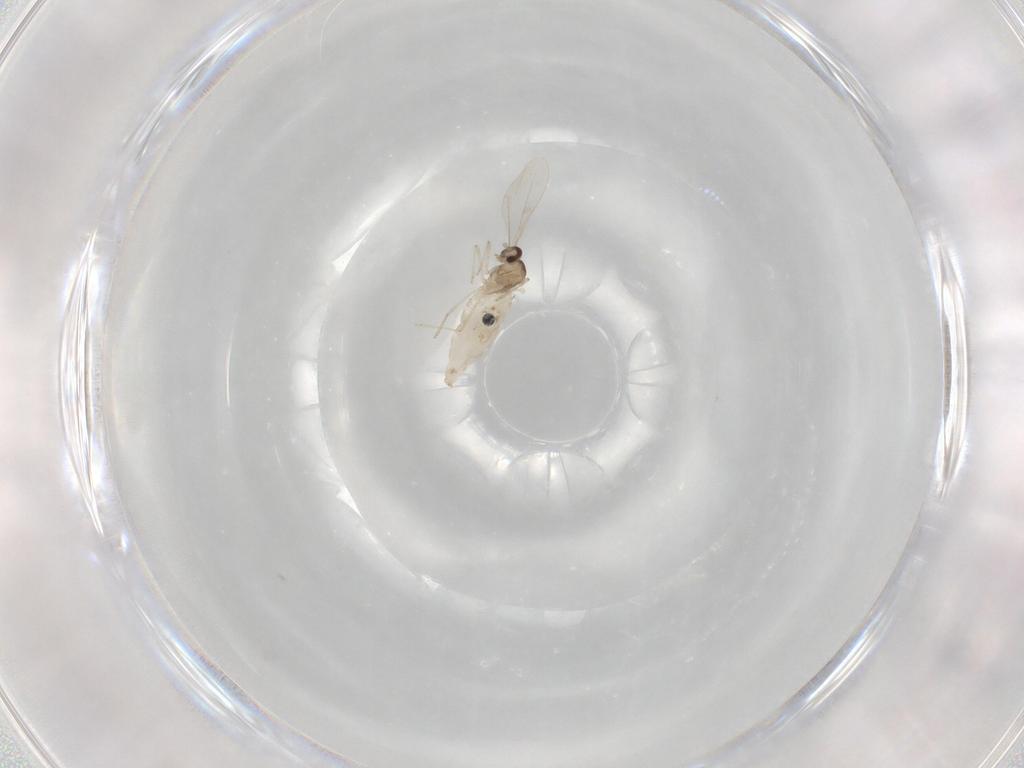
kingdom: Animalia
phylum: Arthropoda
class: Insecta
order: Diptera
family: Cecidomyiidae
